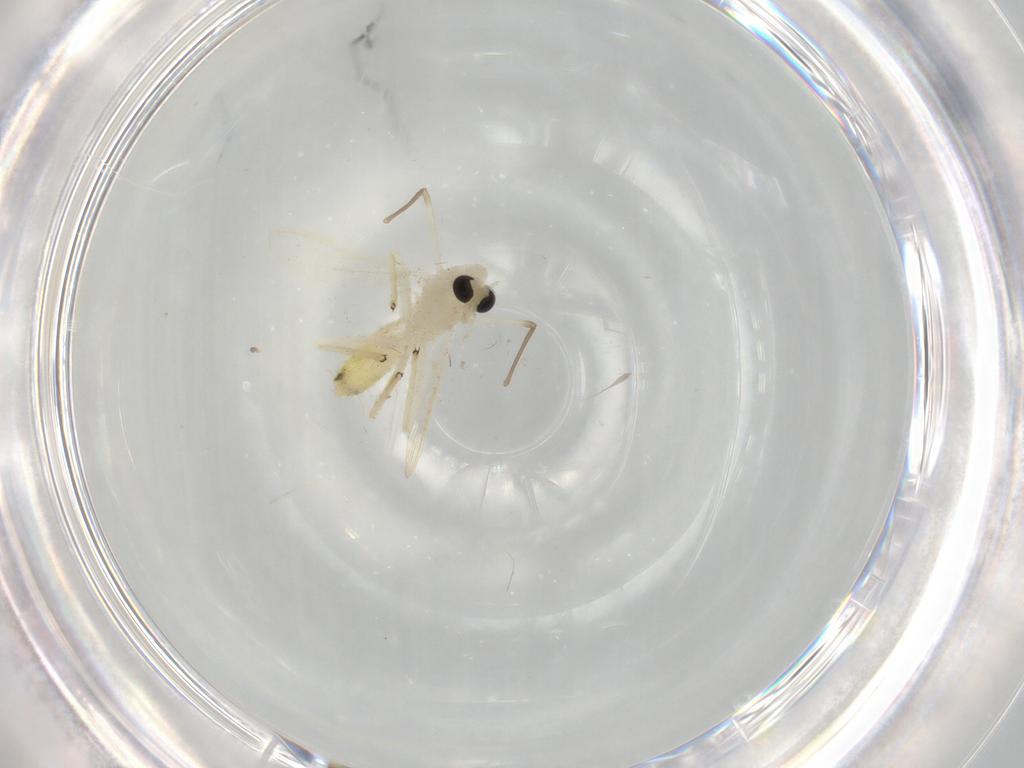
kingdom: Animalia
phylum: Arthropoda
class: Insecta
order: Diptera
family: Chironomidae
